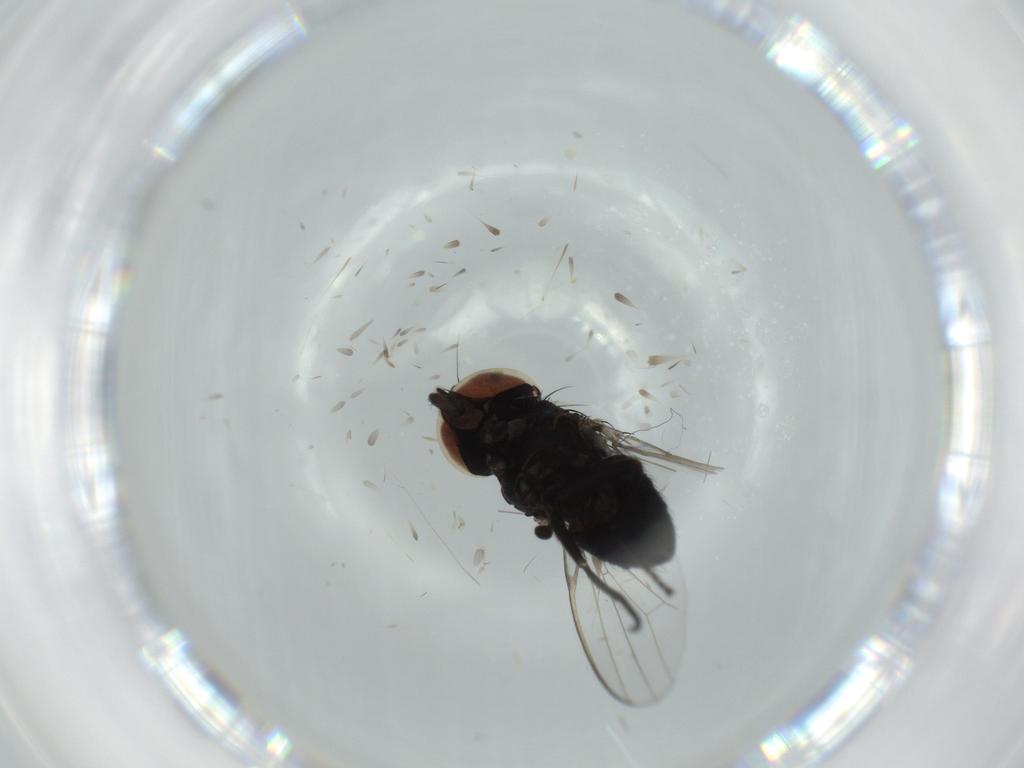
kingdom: Animalia
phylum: Arthropoda
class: Insecta
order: Diptera
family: Milichiidae
